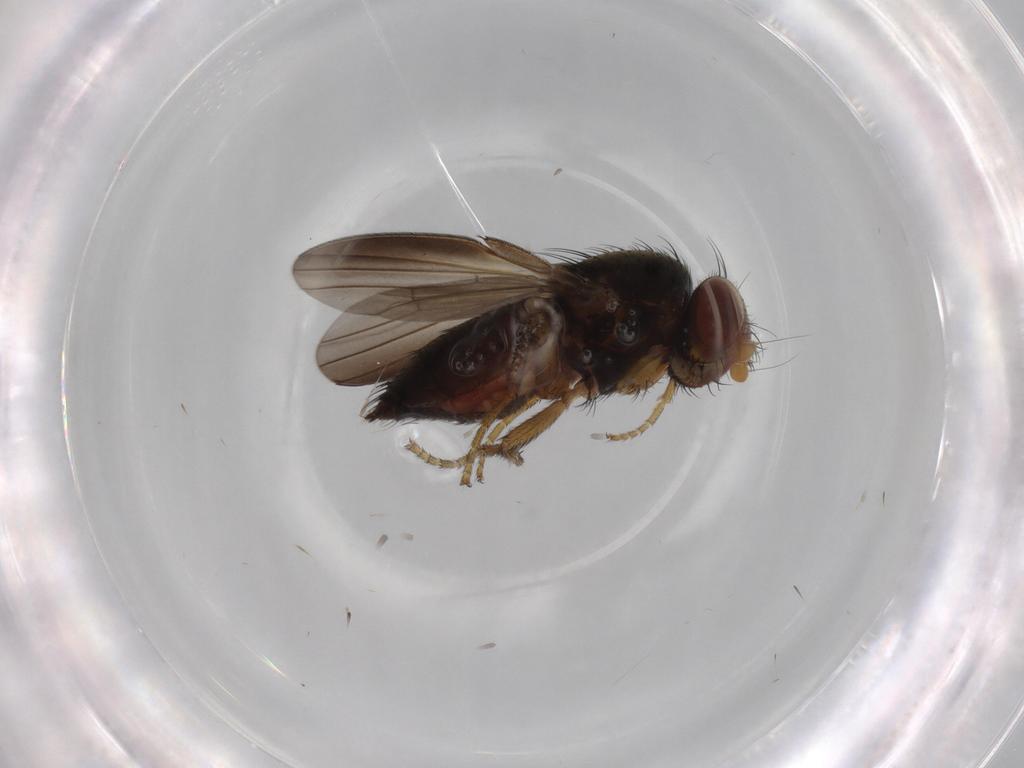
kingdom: Animalia
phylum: Arthropoda
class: Insecta
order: Diptera
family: Milichiidae
